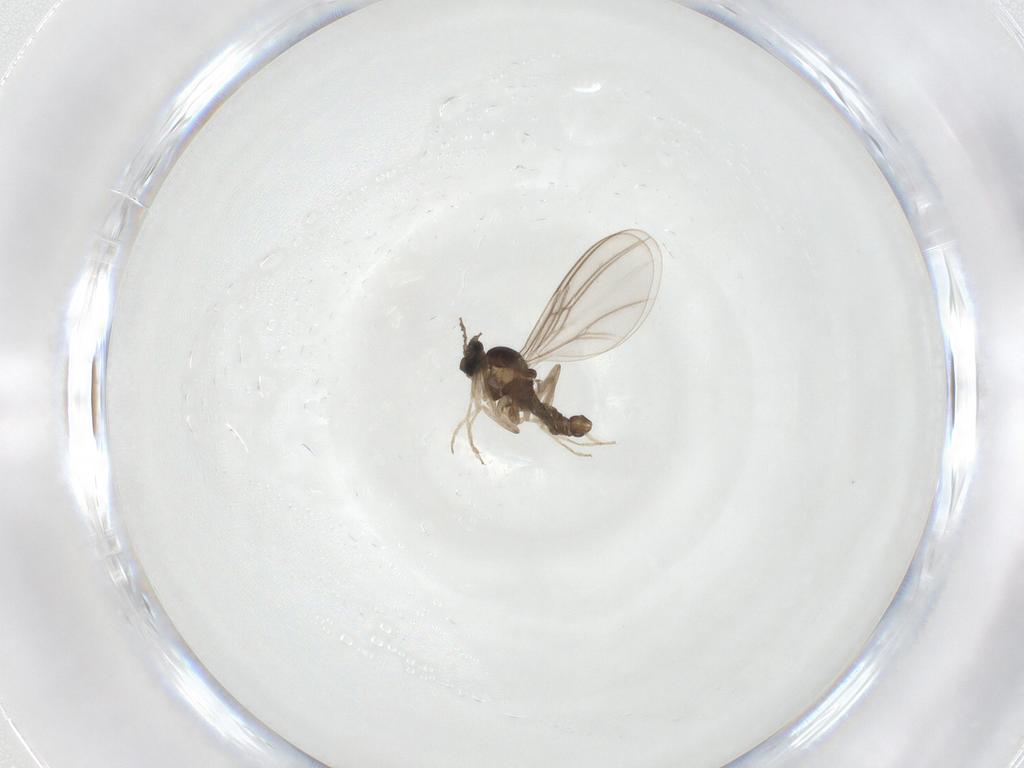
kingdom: Animalia
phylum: Arthropoda
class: Insecta
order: Diptera
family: Cecidomyiidae
